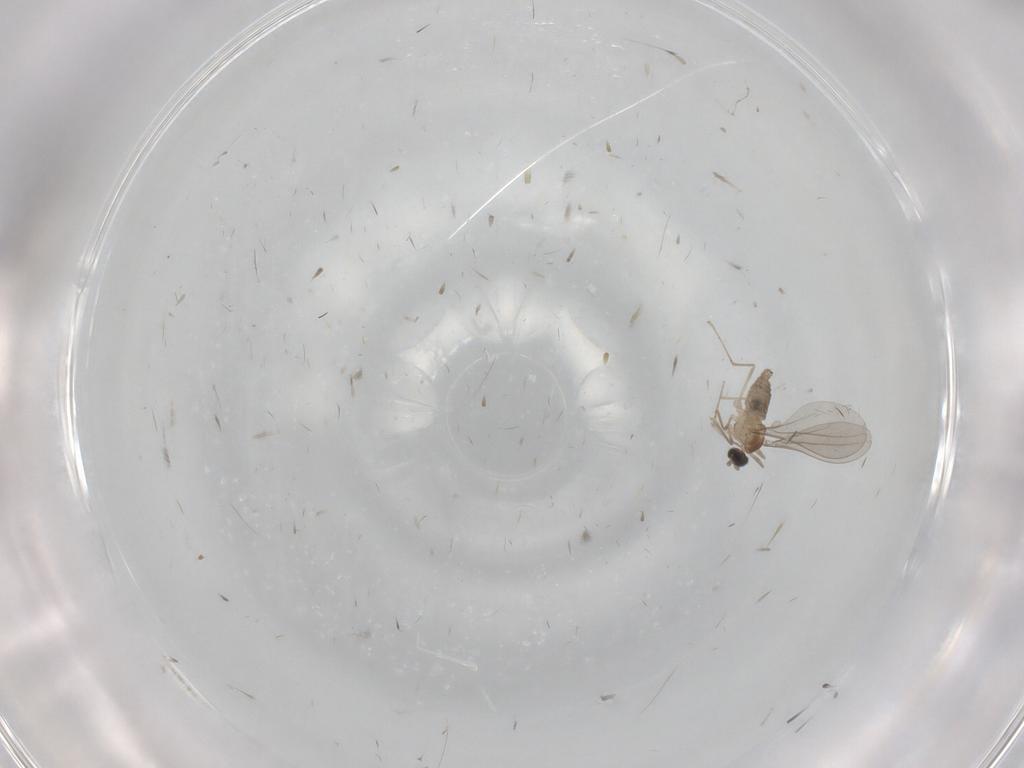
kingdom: Animalia
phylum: Arthropoda
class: Insecta
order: Diptera
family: Cecidomyiidae
